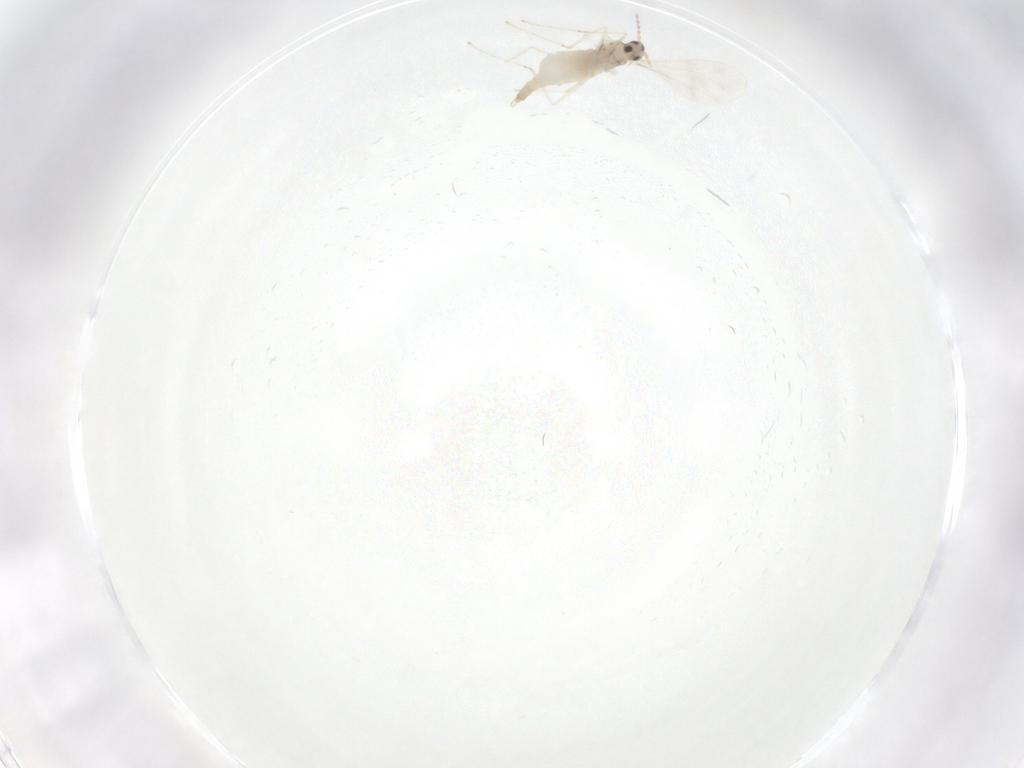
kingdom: Animalia
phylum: Arthropoda
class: Insecta
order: Diptera
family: Cecidomyiidae
